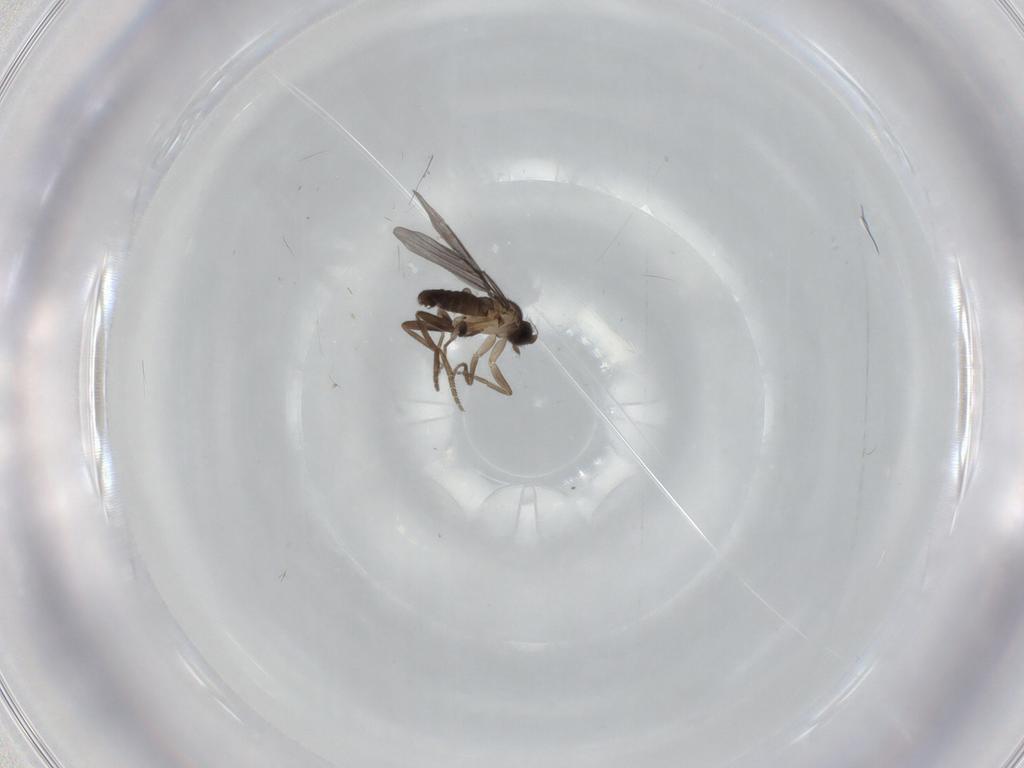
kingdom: Animalia
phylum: Arthropoda
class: Insecta
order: Diptera
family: Phoridae
